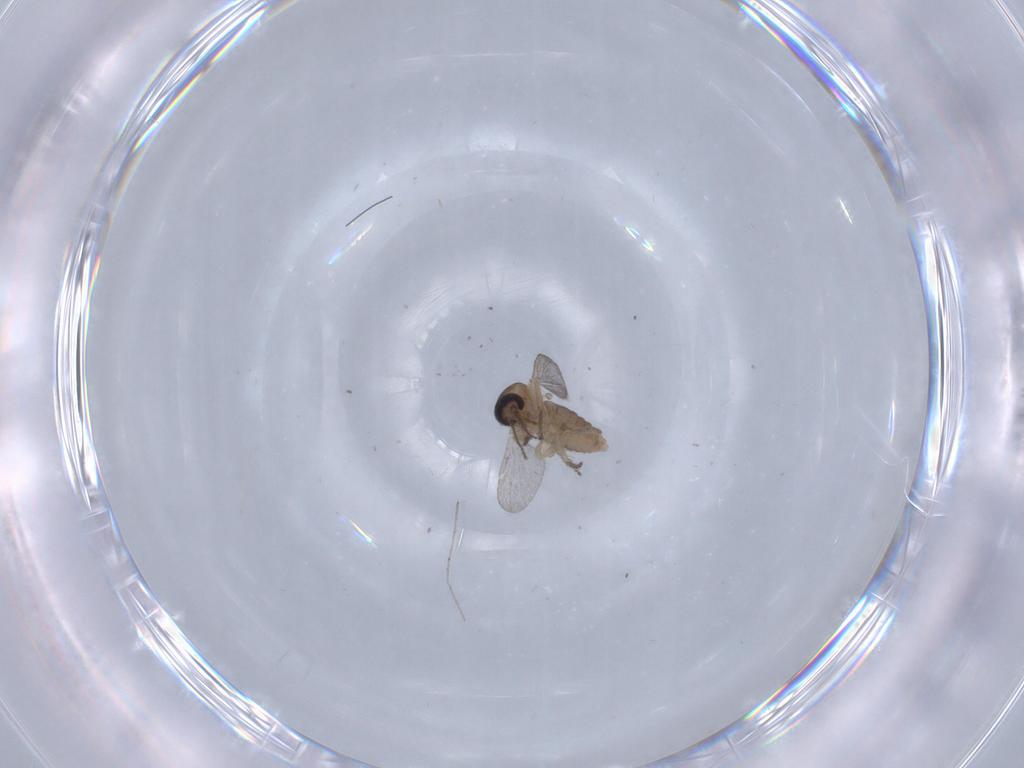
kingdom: Animalia
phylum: Arthropoda
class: Insecta
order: Diptera
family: Cecidomyiidae
